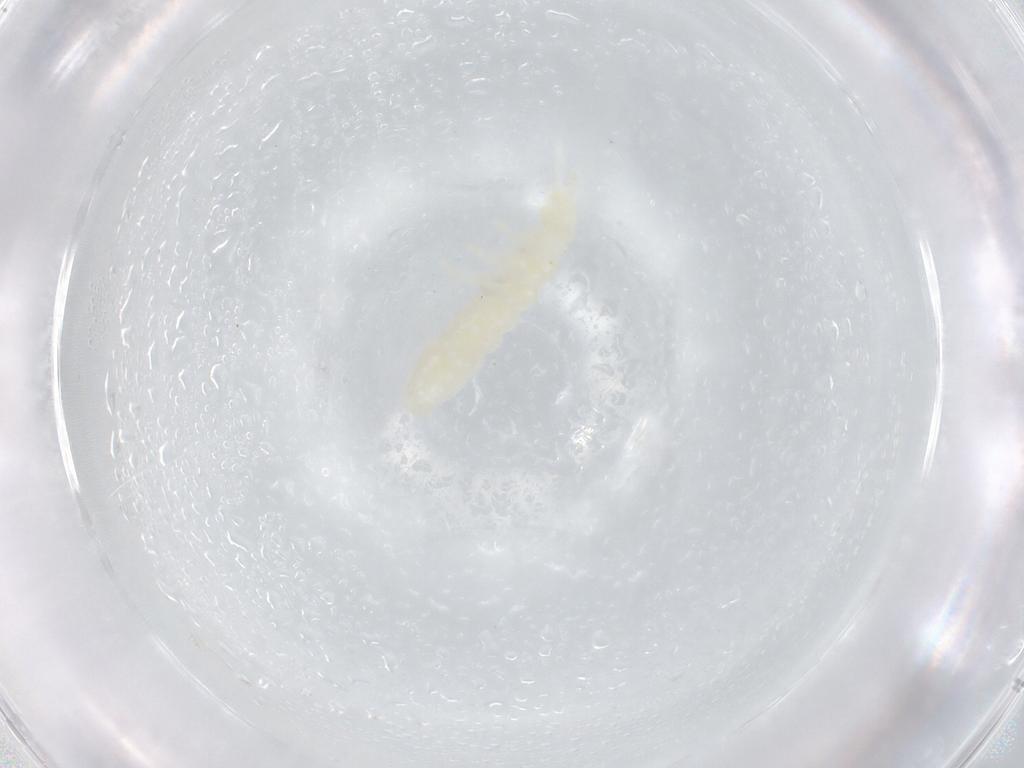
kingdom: Animalia
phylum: Arthropoda
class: Collembola
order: Poduromorpha
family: Onychiuridae
